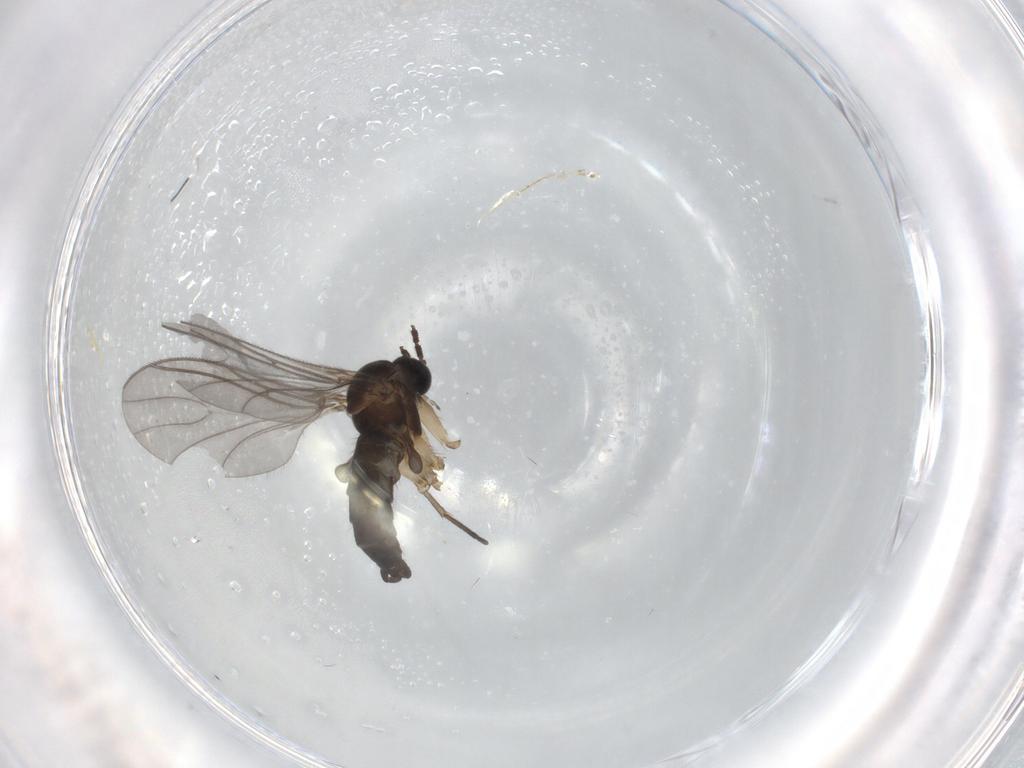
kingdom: Animalia
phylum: Arthropoda
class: Insecta
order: Diptera
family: Sciaridae
